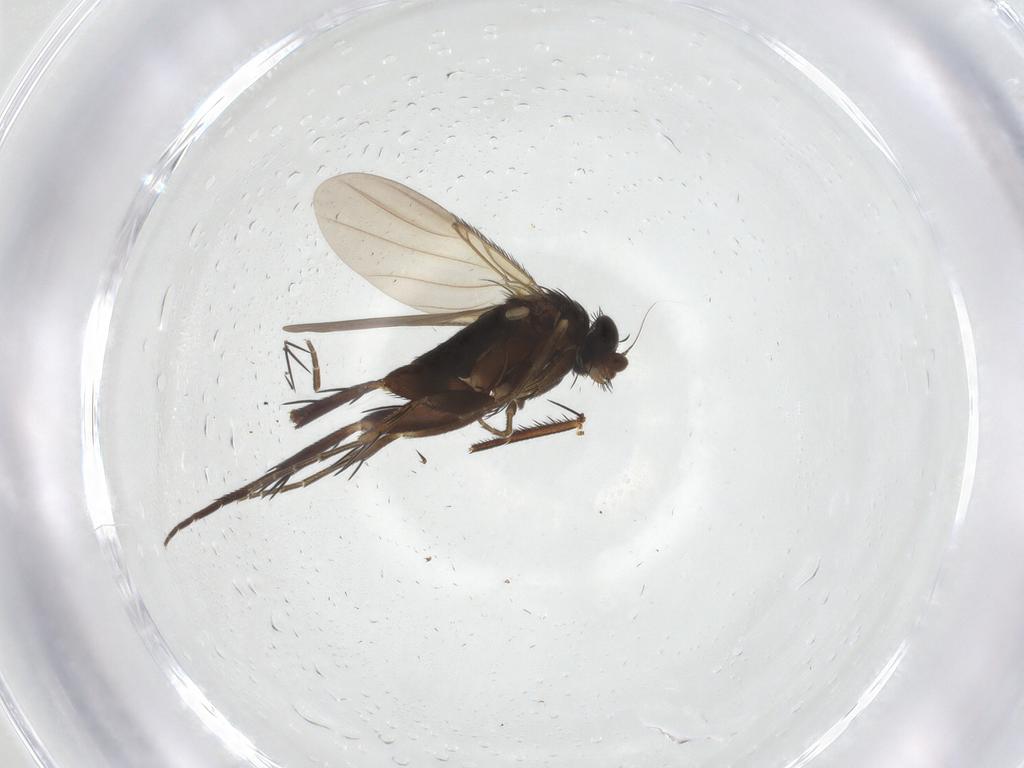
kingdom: Animalia
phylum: Arthropoda
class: Insecta
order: Diptera
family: Phoridae
